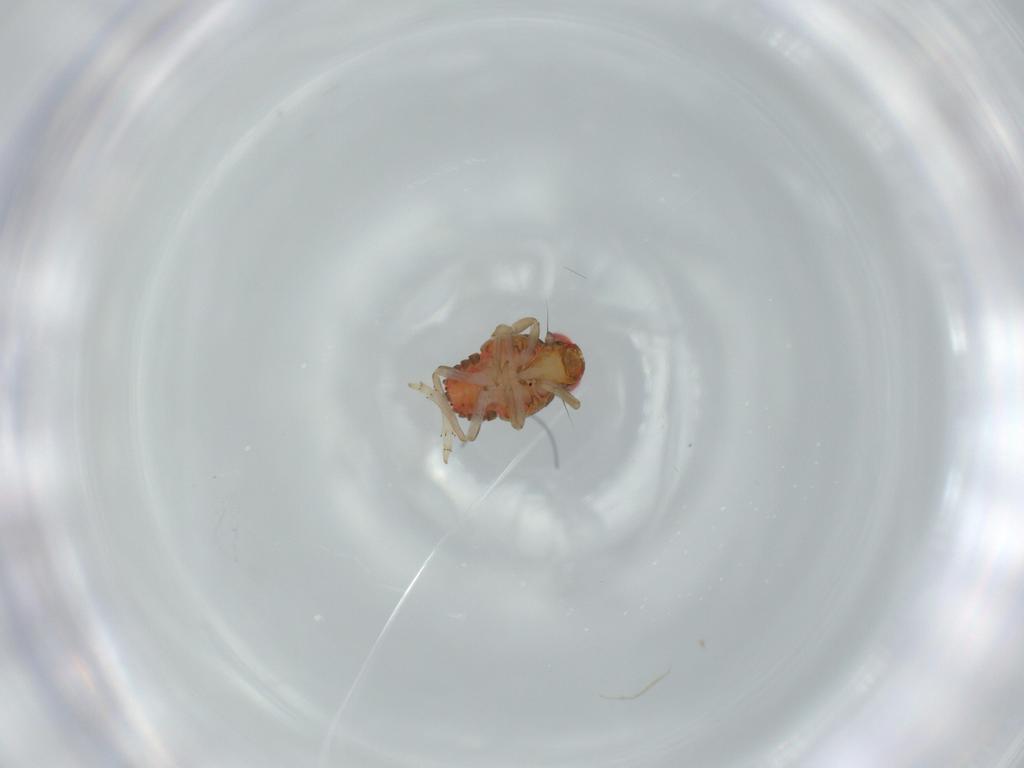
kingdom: Animalia
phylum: Arthropoda
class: Insecta
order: Hemiptera
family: Issidae
